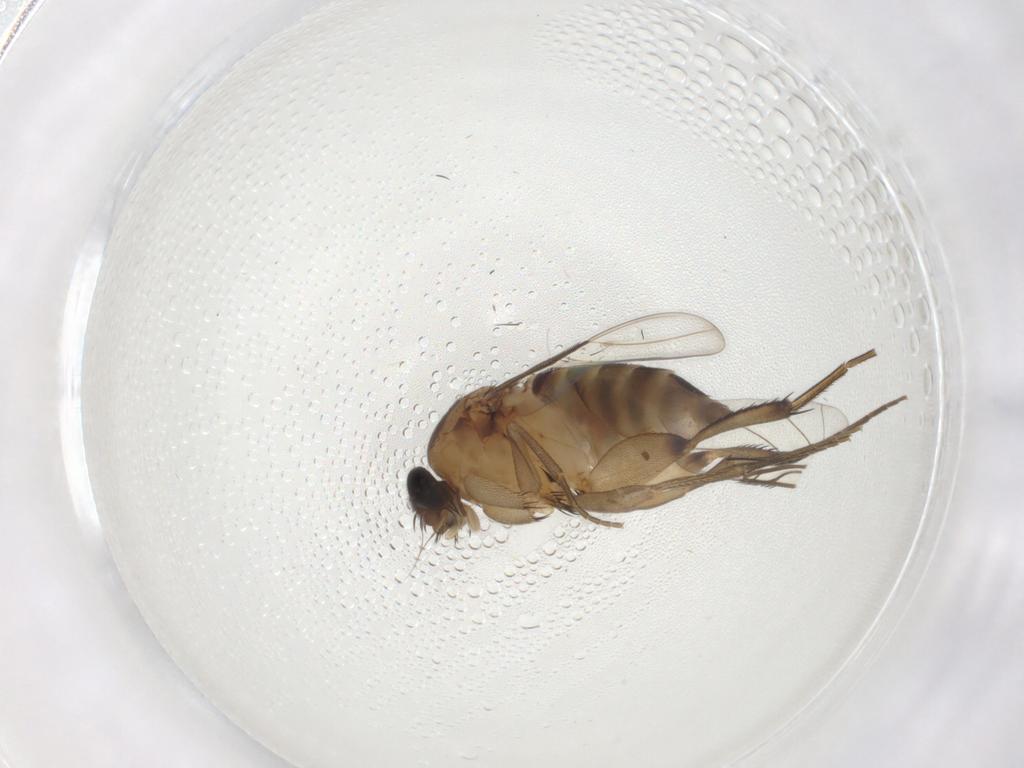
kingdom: Animalia
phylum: Arthropoda
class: Insecta
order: Diptera
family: Phoridae
